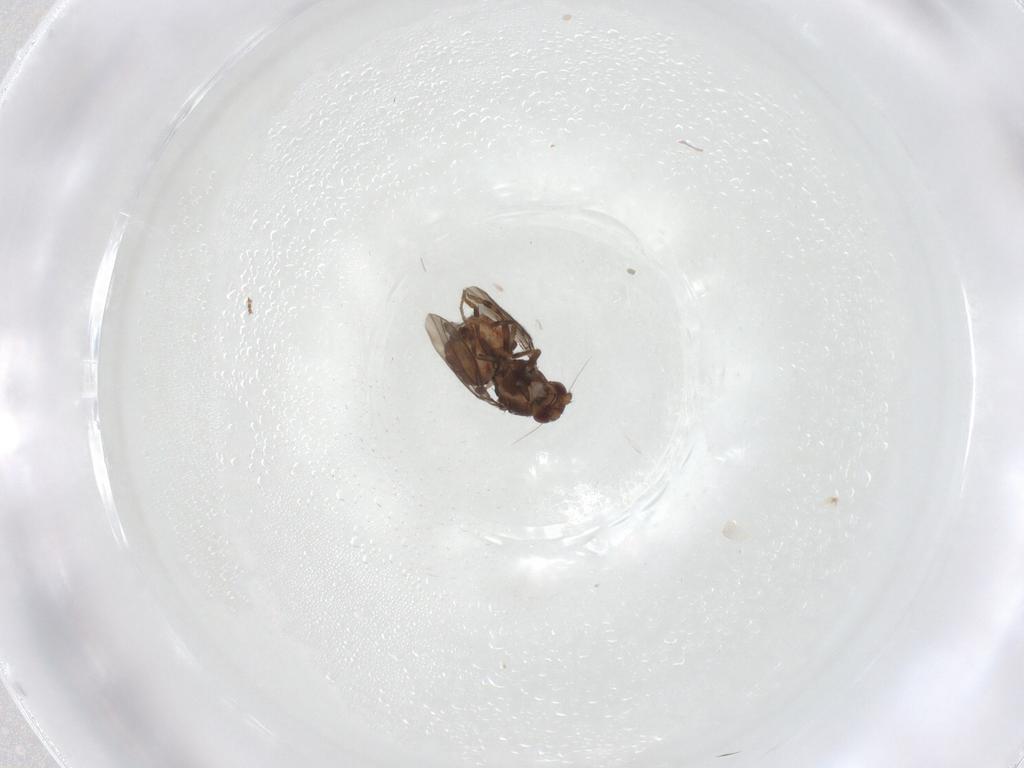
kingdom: Animalia
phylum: Arthropoda
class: Insecta
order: Diptera
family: Sphaeroceridae
